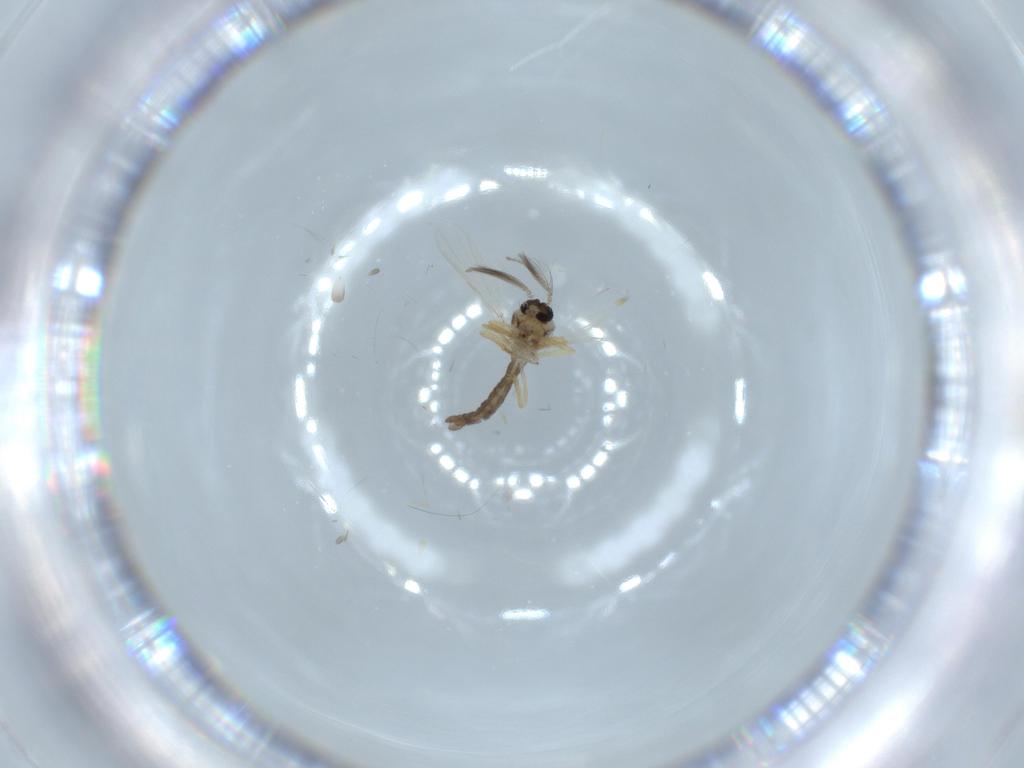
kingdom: Animalia
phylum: Arthropoda
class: Insecta
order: Diptera
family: Ceratopogonidae
